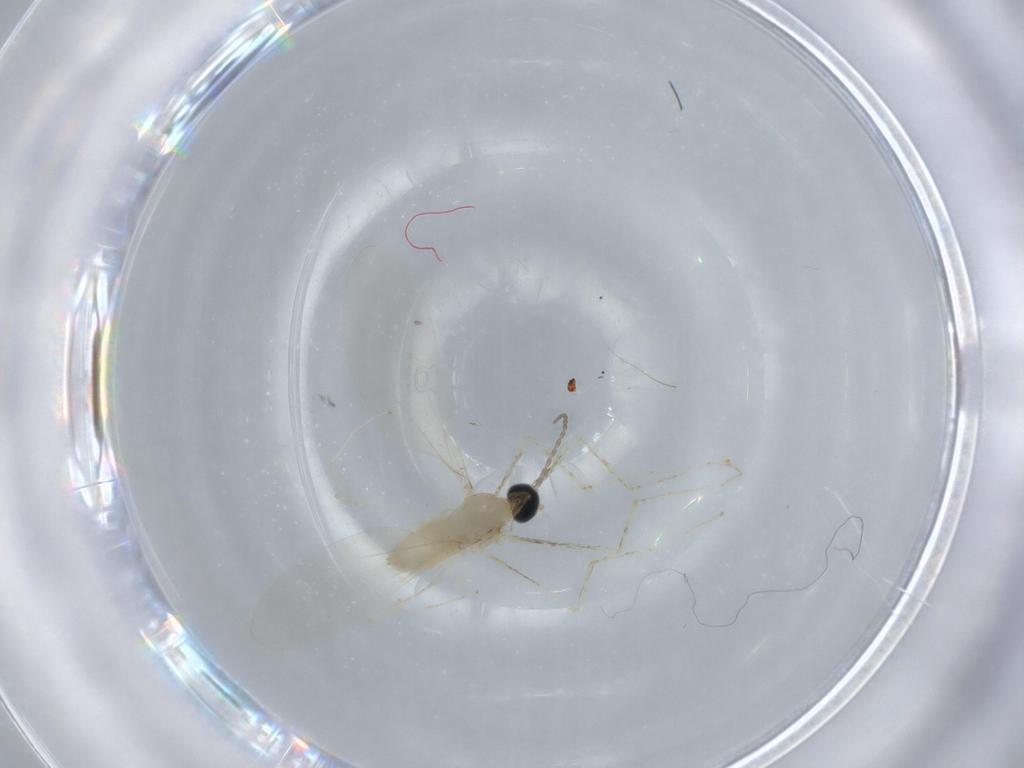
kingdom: Animalia
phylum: Arthropoda
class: Insecta
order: Diptera
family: Cecidomyiidae
